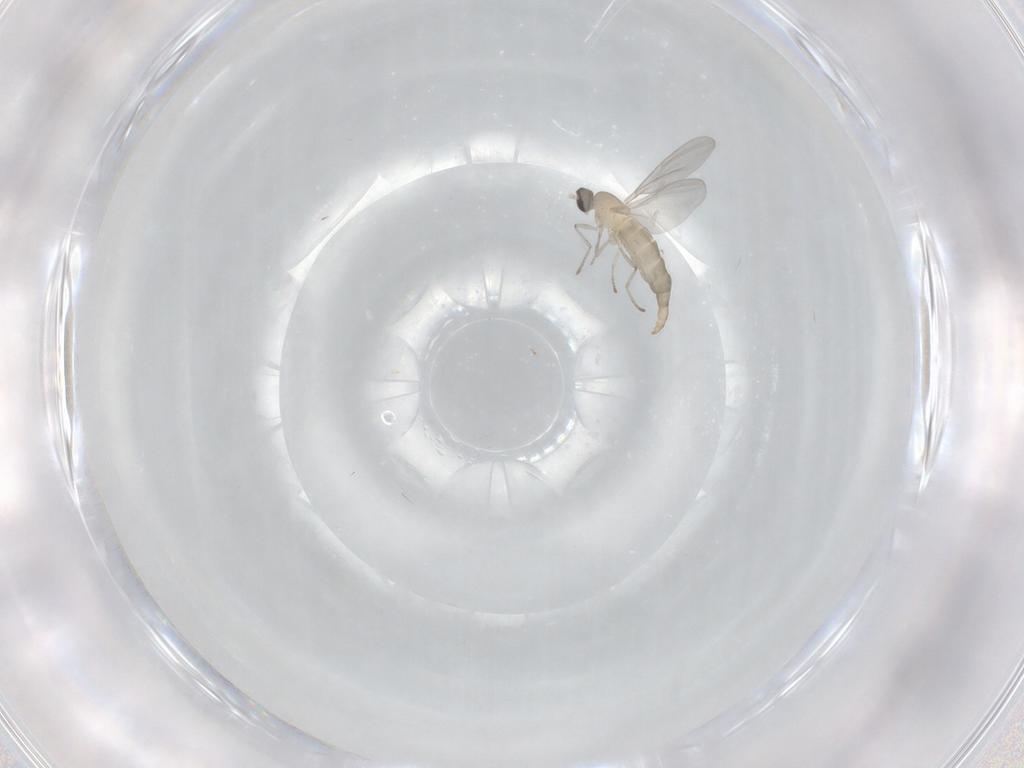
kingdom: Animalia
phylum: Arthropoda
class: Insecta
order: Diptera
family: Cecidomyiidae
